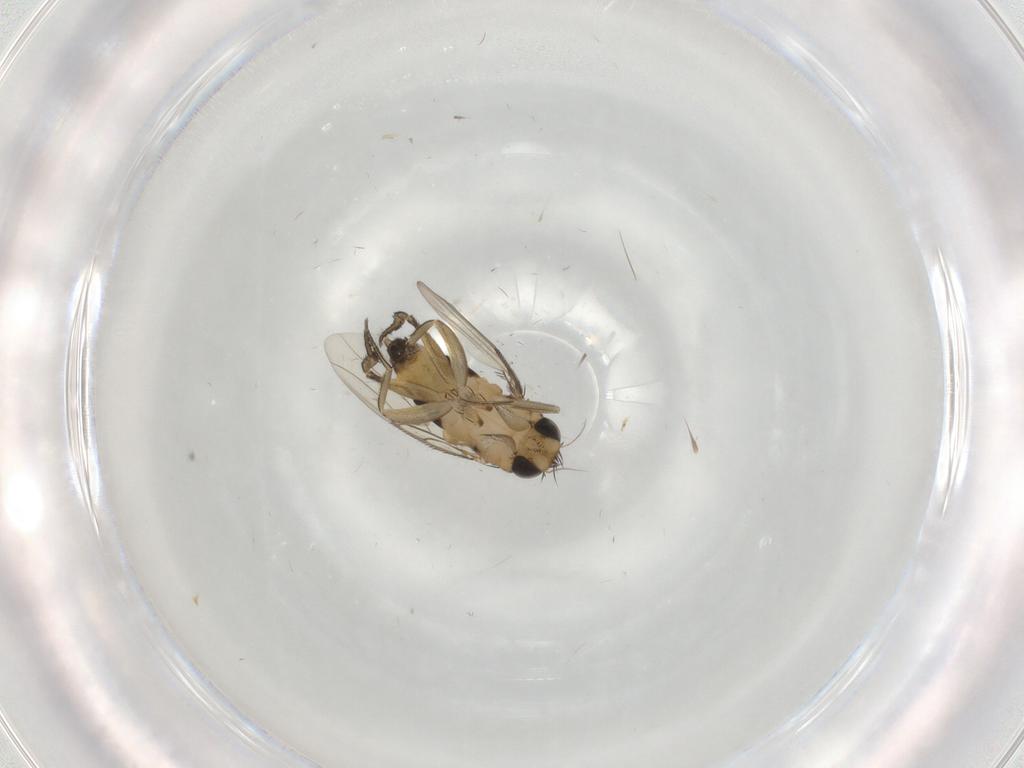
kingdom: Animalia
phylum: Arthropoda
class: Insecta
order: Diptera
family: Phoridae
